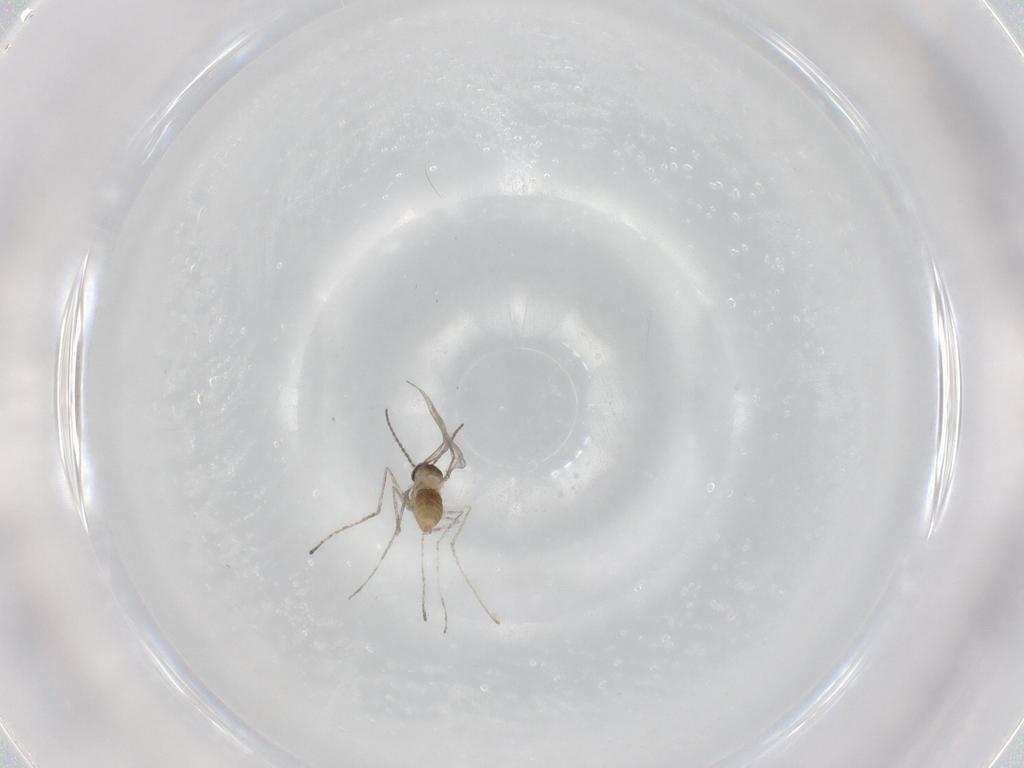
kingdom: Animalia
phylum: Arthropoda
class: Insecta
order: Diptera
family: Cecidomyiidae
